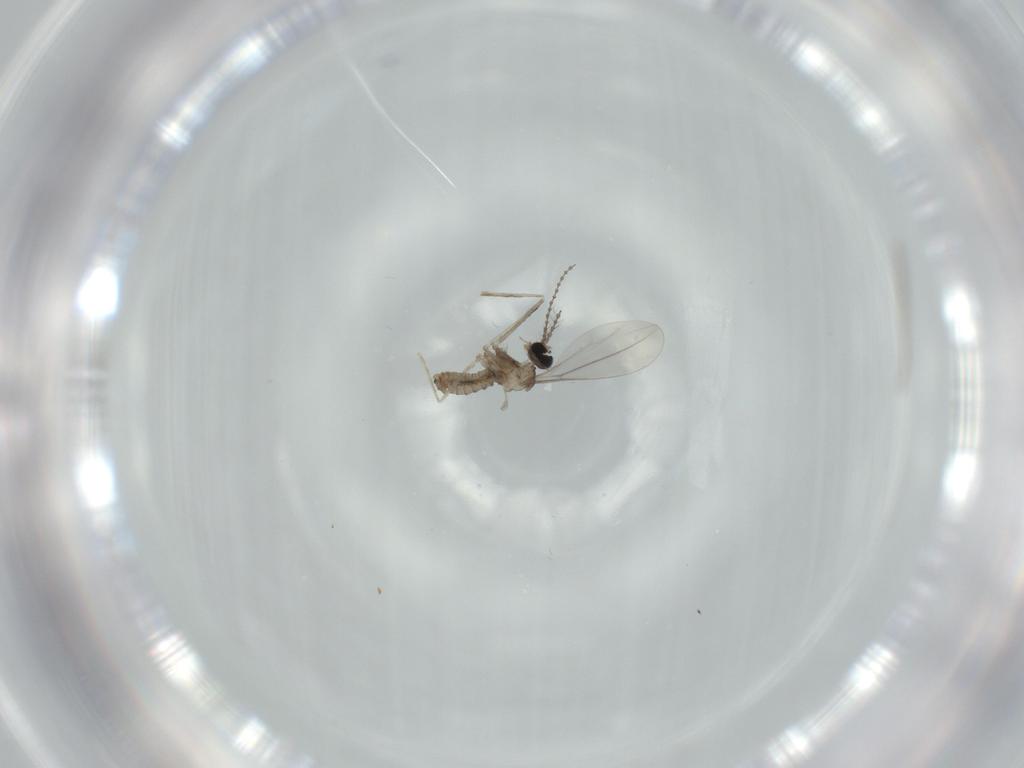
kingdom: Animalia
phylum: Arthropoda
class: Insecta
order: Diptera
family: Cecidomyiidae
